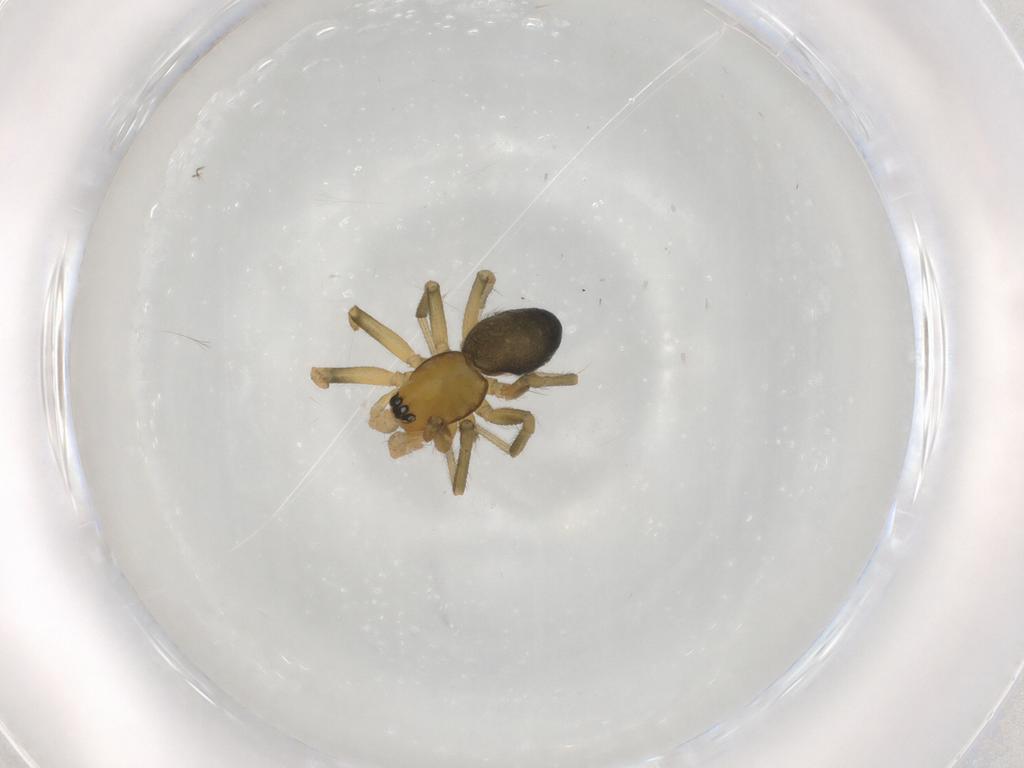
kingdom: Animalia
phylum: Arthropoda
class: Arachnida
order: Araneae
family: Linyphiidae
